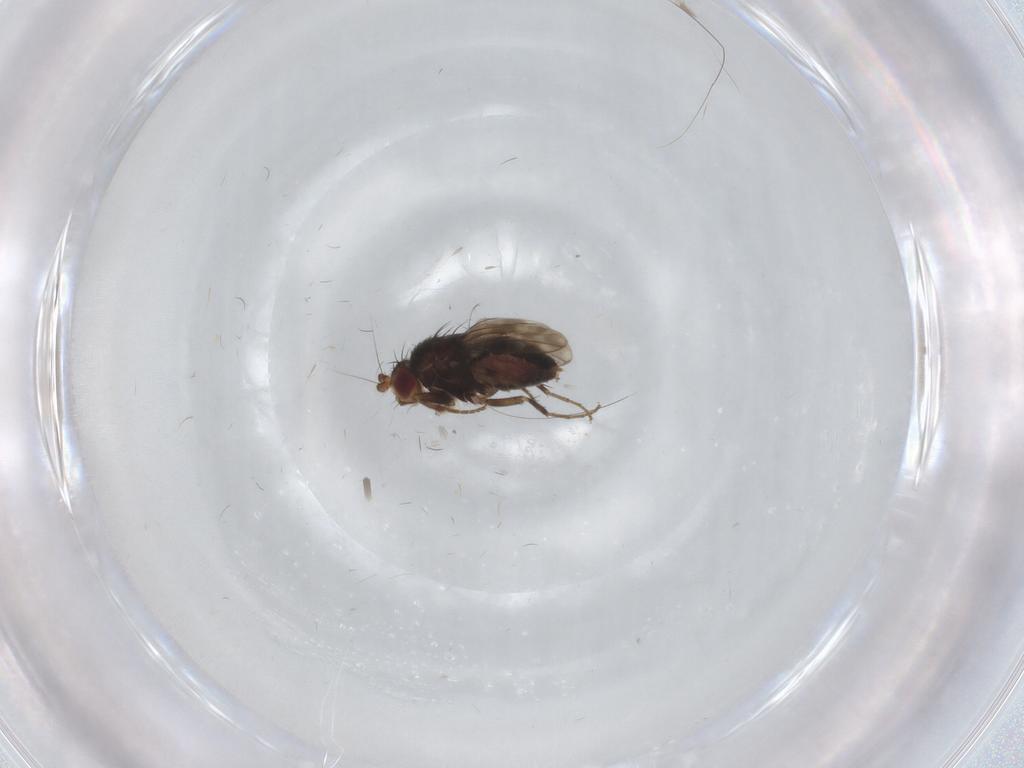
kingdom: Animalia
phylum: Arthropoda
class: Insecta
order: Diptera
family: Sphaeroceridae
